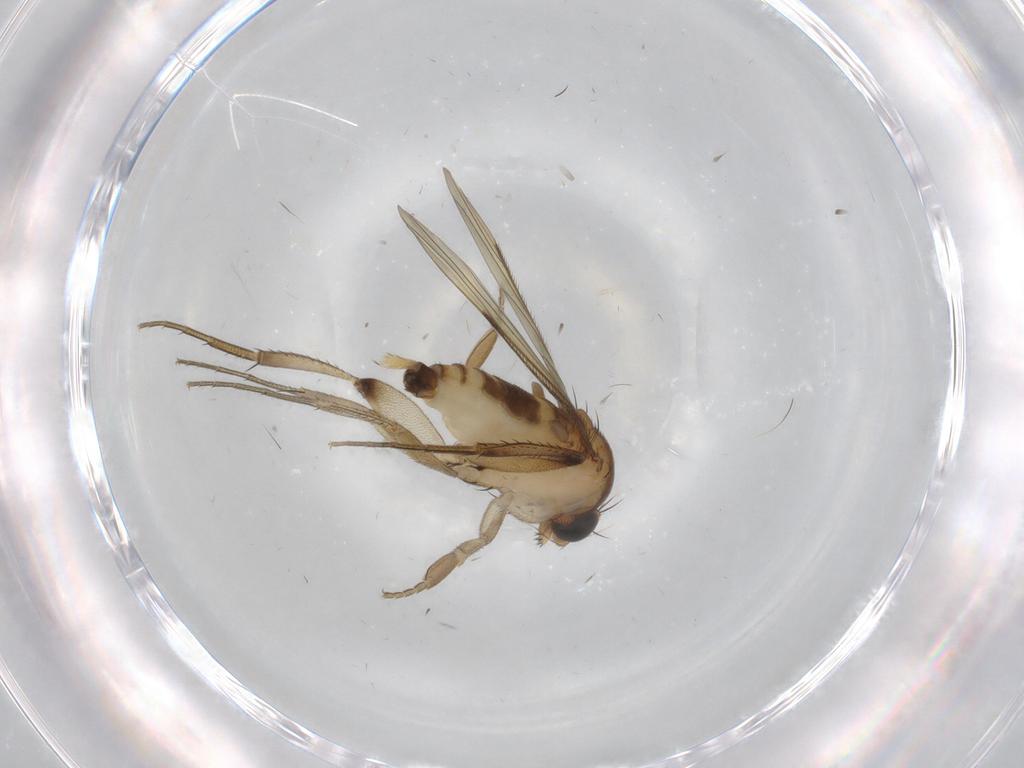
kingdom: Animalia
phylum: Arthropoda
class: Insecta
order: Diptera
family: Phoridae
